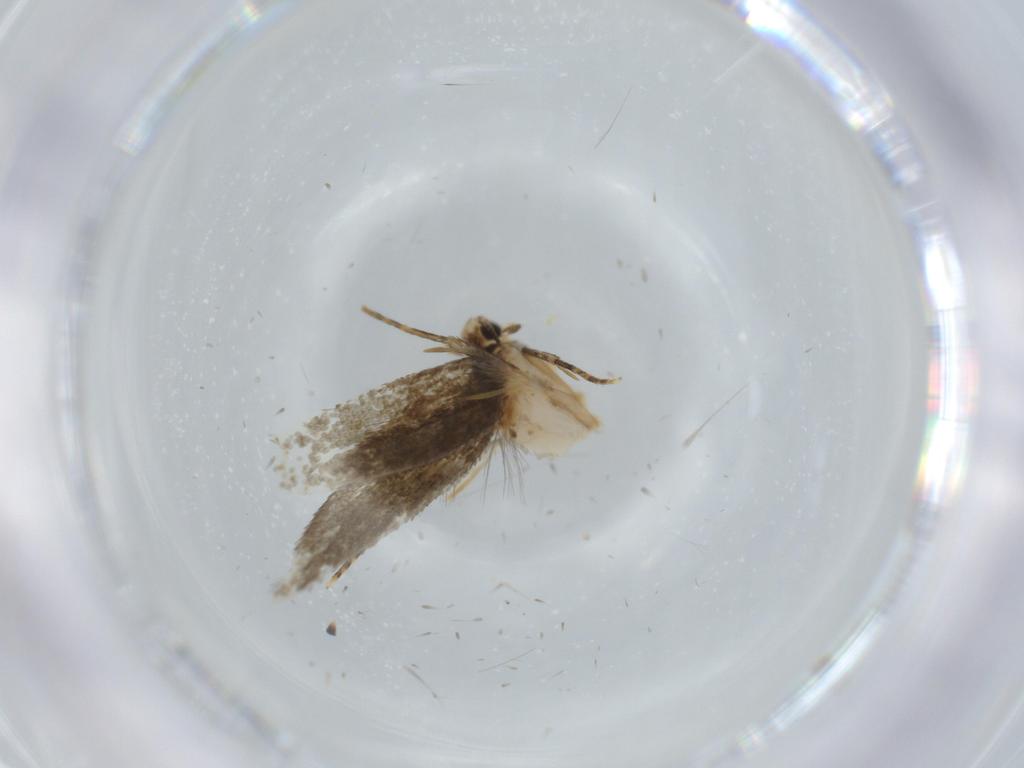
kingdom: Animalia
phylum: Arthropoda
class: Insecta
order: Lepidoptera
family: Tineidae
